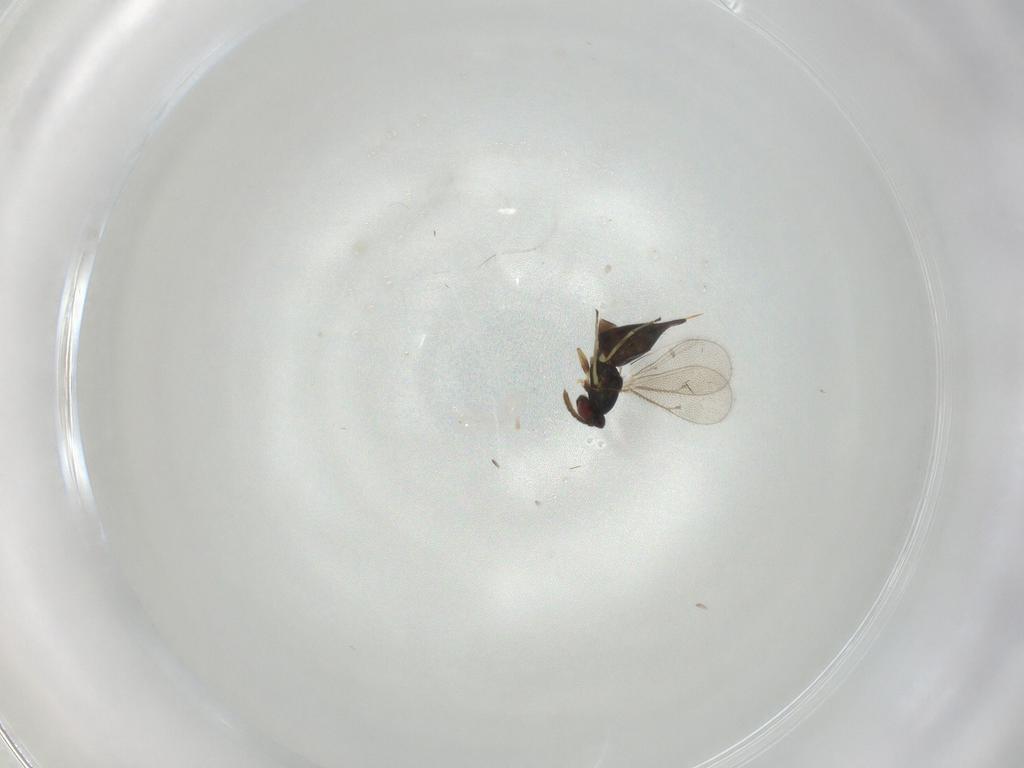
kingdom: Animalia
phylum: Arthropoda
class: Insecta
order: Hymenoptera
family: Eulophidae
